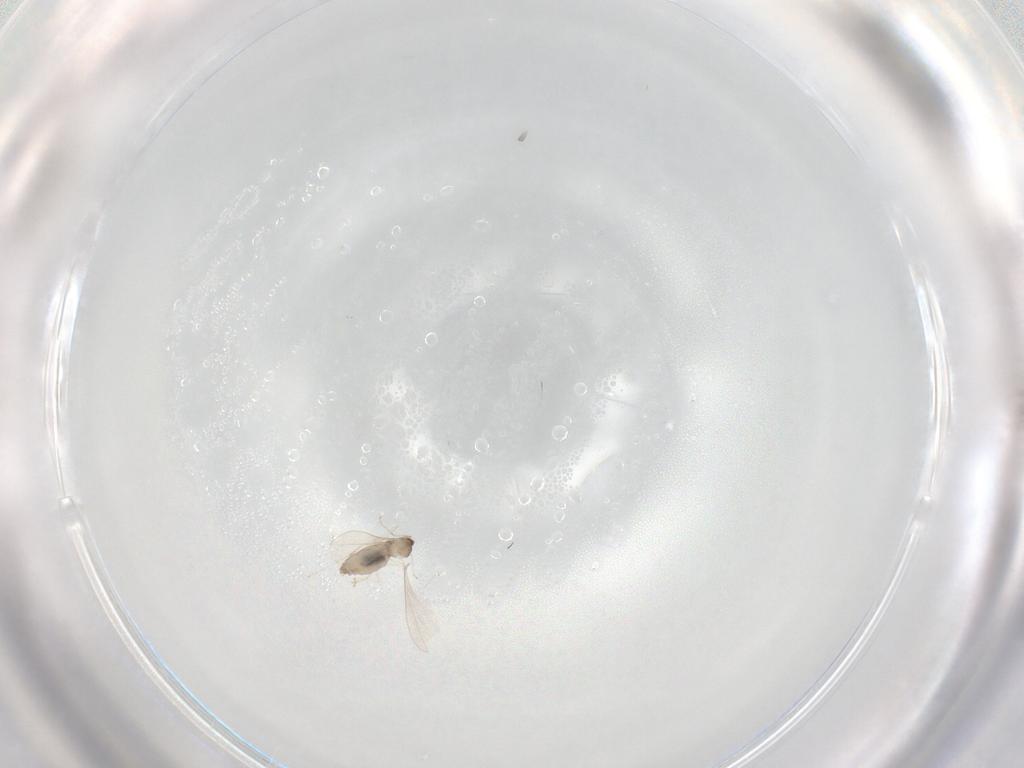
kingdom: Animalia
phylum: Arthropoda
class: Insecta
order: Diptera
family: Cecidomyiidae
